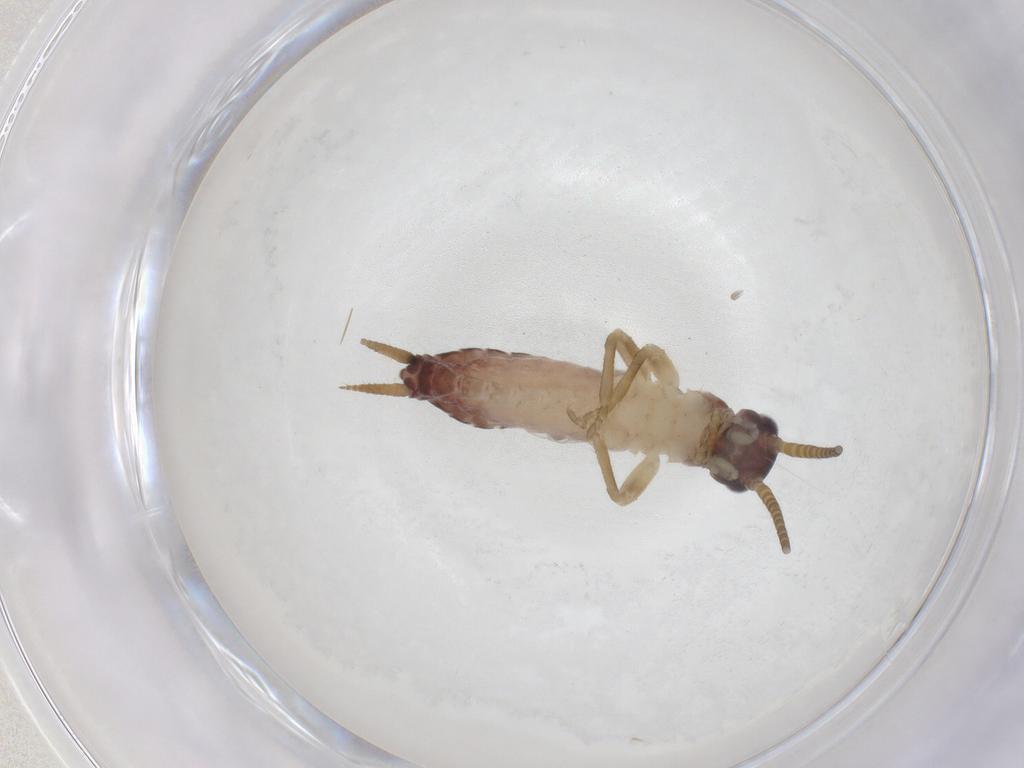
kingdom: Animalia
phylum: Arthropoda
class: Insecta
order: Orthoptera
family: Gryllidae
